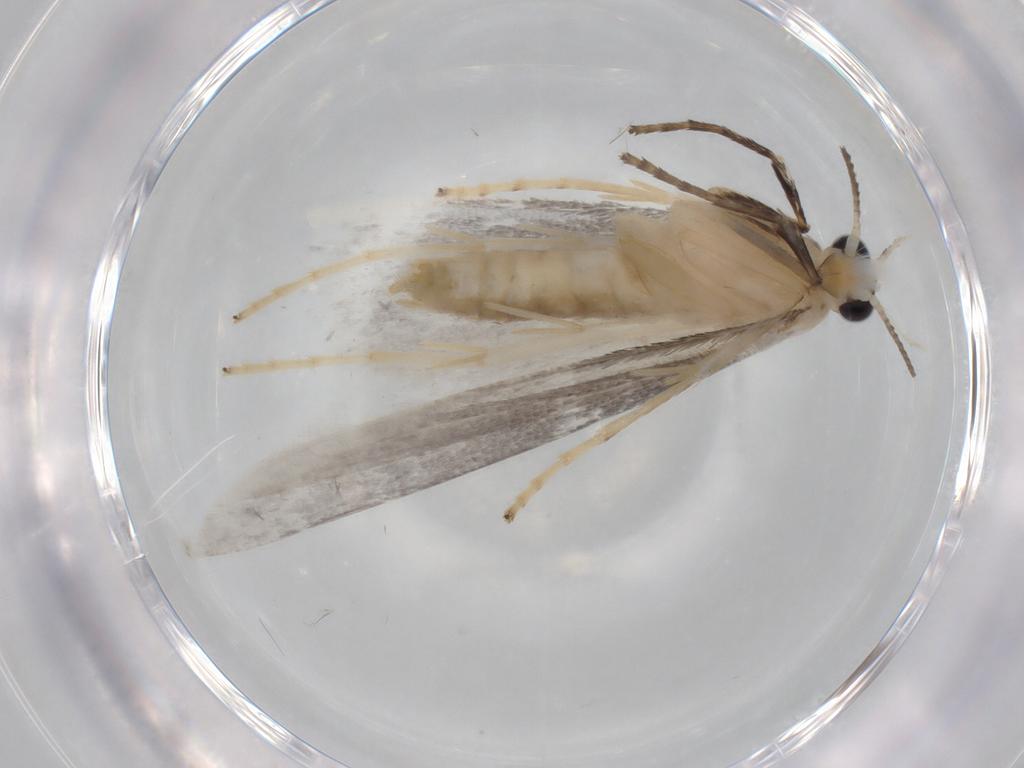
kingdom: Animalia
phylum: Arthropoda
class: Insecta
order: Lepidoptera
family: Yponomeutidae
